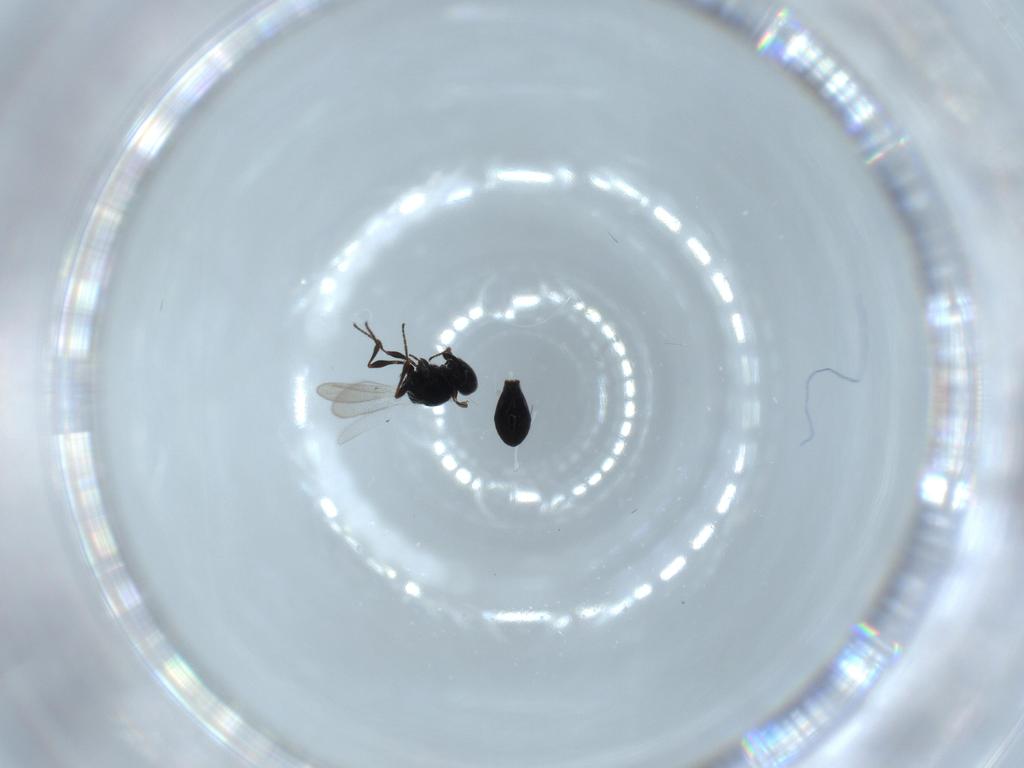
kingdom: Animalia
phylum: Arthropoda
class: Insecta
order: Hymenoptera
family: Platygastridae
